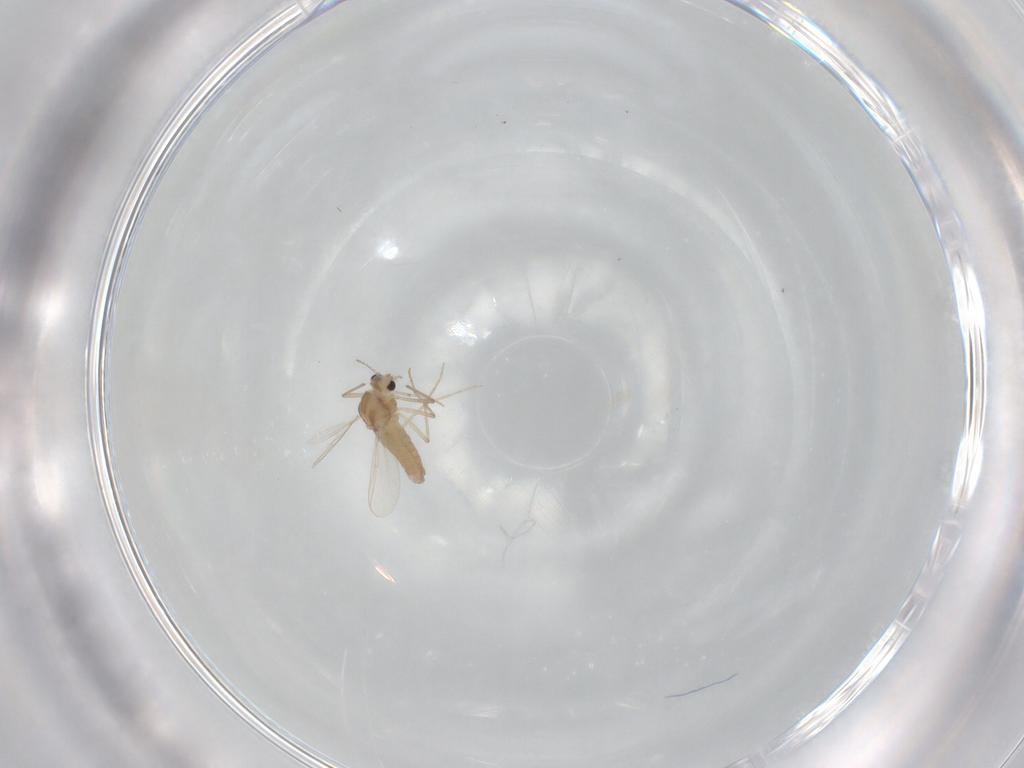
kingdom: Animalia
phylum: Arthropoda
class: Insecta
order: Diptera
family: Chironomidae
